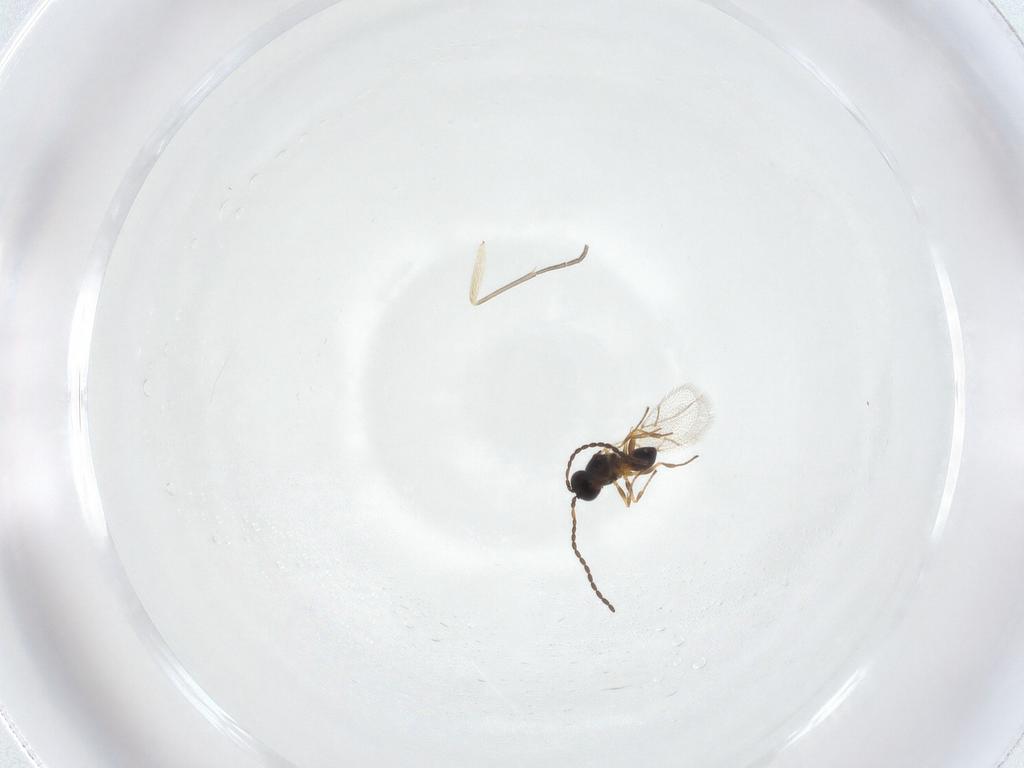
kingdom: Animalia
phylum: Arthropoda
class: Insecta
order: Hymenoptera
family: Figitidae
